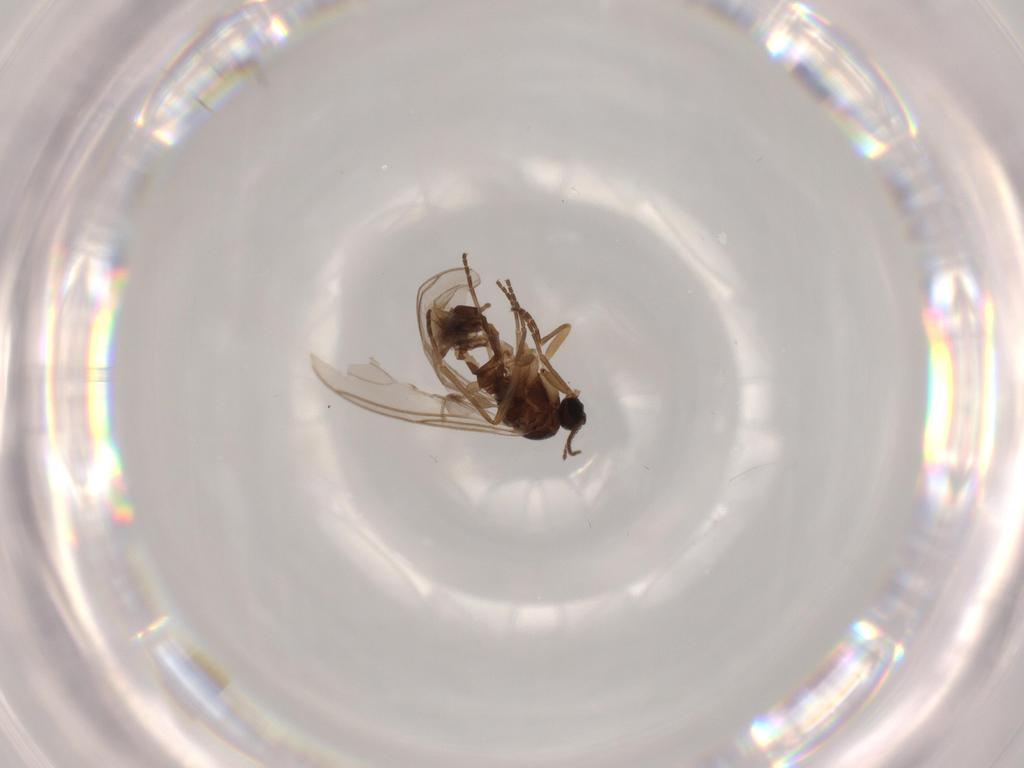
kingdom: Animalia
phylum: Arthropoda
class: Insecta
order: Diptera
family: Sciaridae
